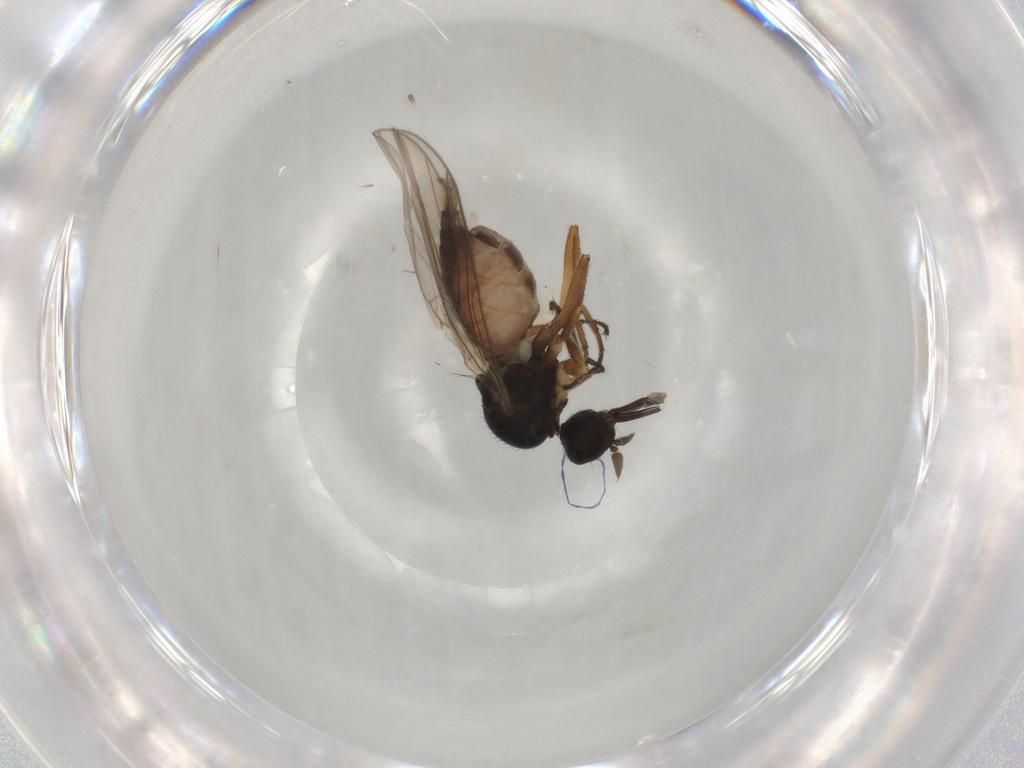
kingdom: Animalia
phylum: Arthropoda
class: Insecta
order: Diptera
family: Hybotidae
